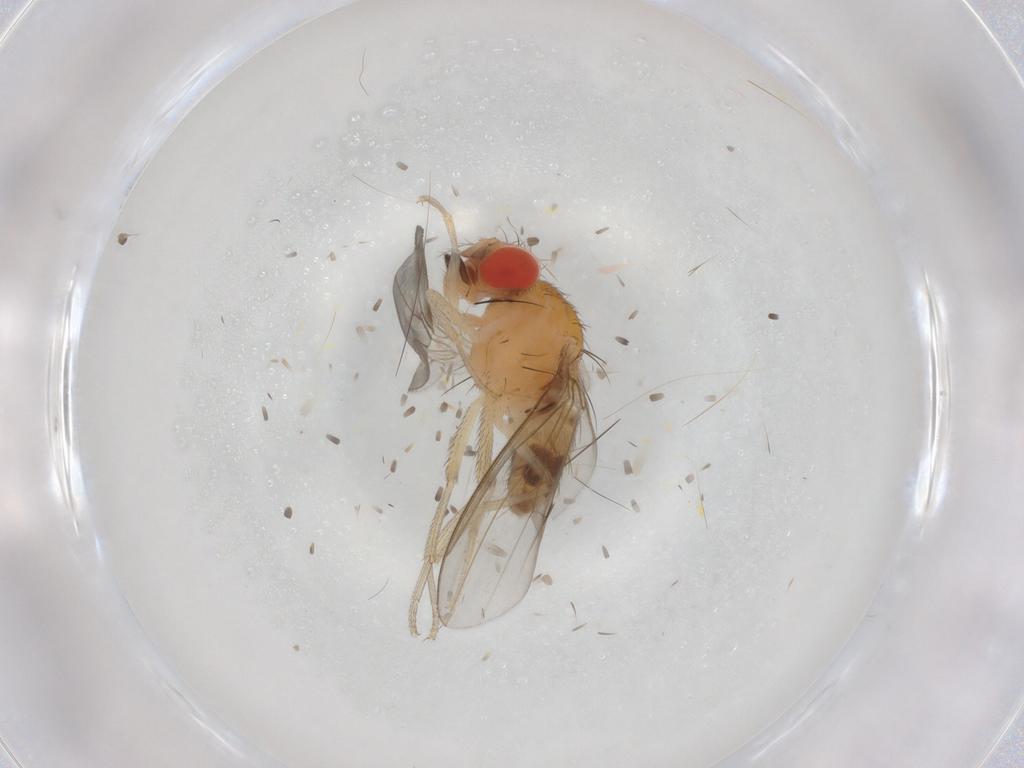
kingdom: Animalia
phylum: Arthropoda
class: Insecta
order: Diptera
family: Drosophilidae
